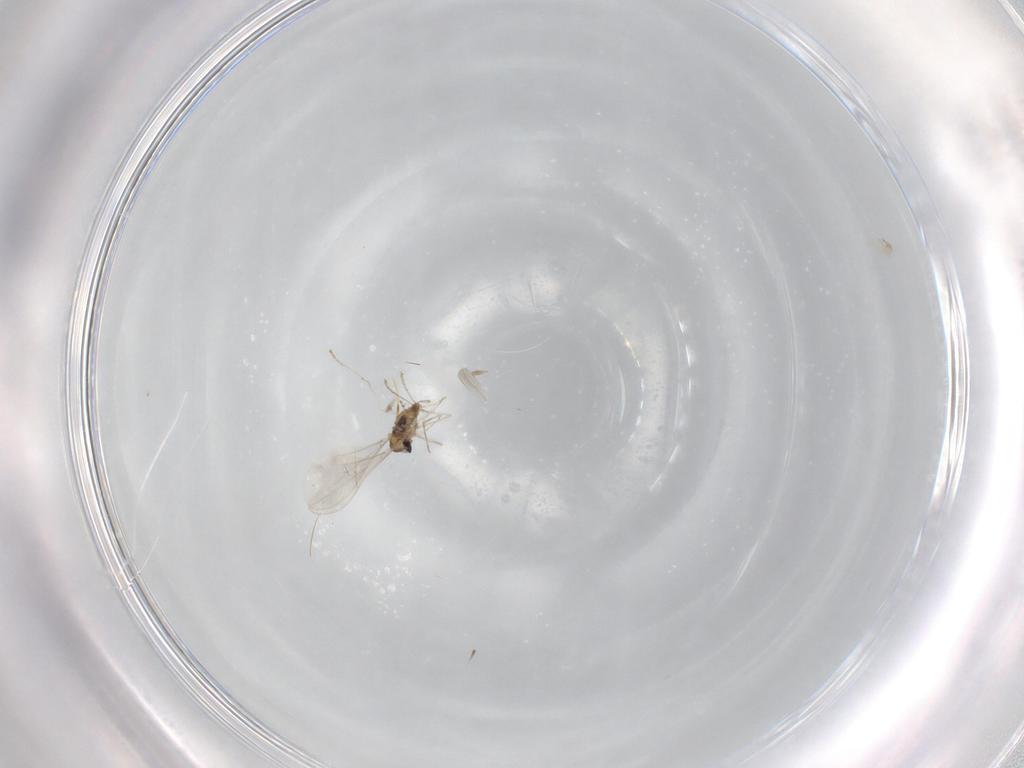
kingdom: Animalia
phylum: Arthropoda
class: Insecta
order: Diptera
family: Cecidomyiidae
